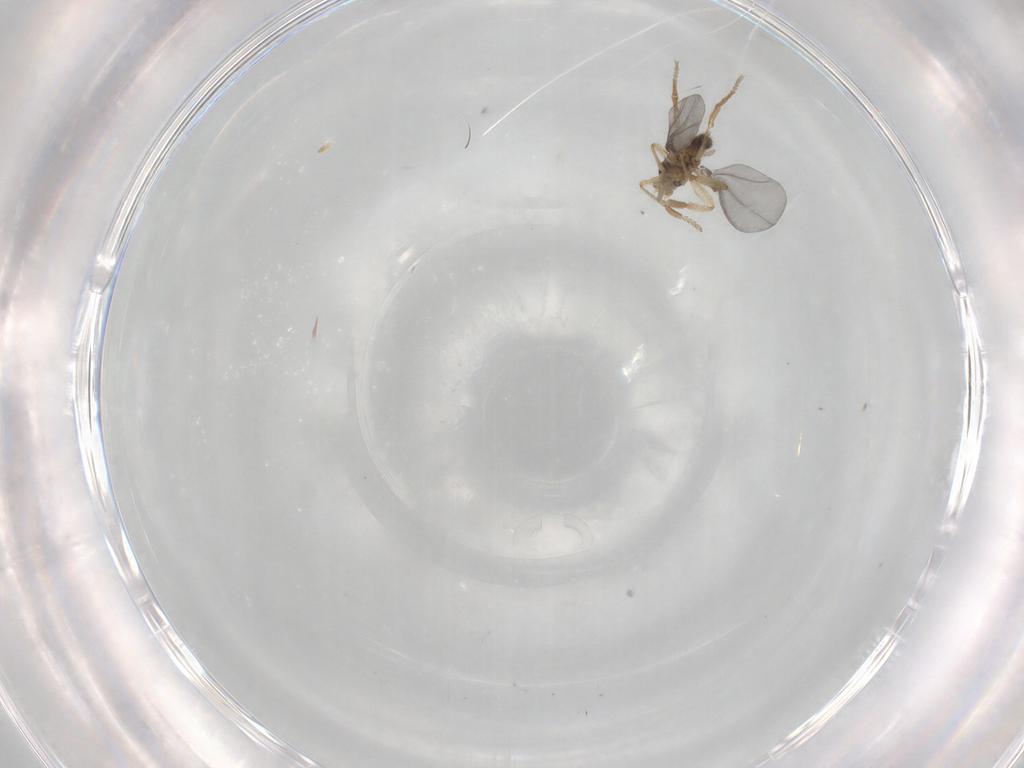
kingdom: Animalia
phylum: Arthropoda
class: Insecta
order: Diptera
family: Phoridae
